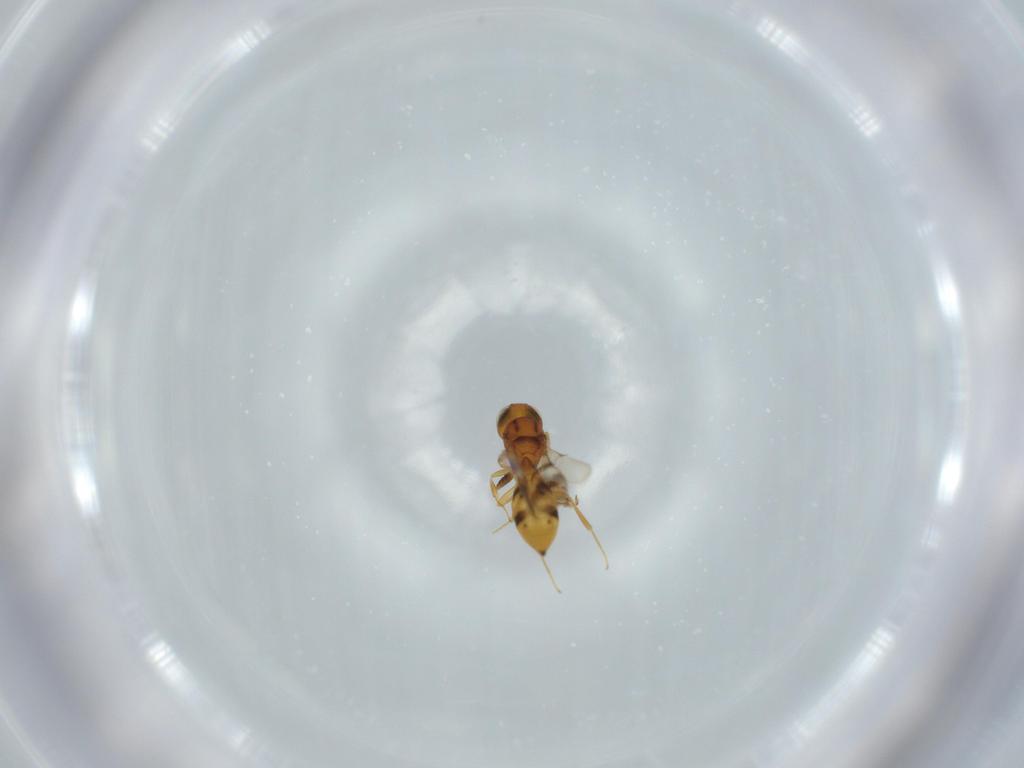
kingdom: Animalia
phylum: Arthropoda
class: Insecta
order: Hymenoptera
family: Scelionidae
